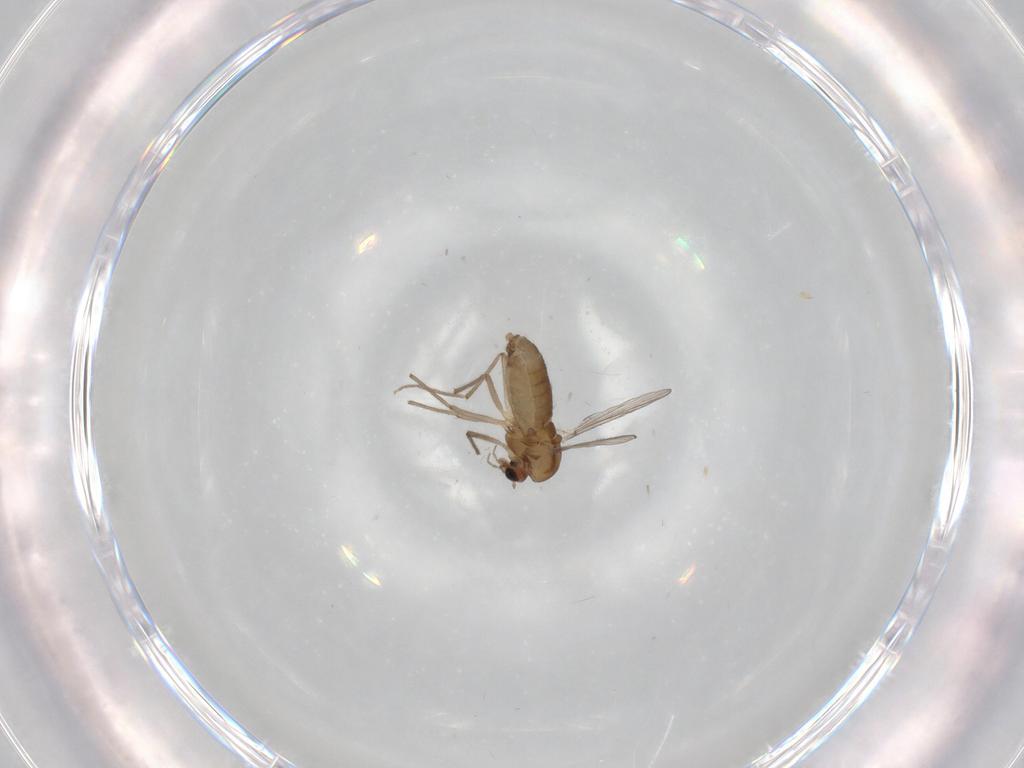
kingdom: Animalia
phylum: Arthropoda
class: Insecta
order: Diptera
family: Chironomidae
